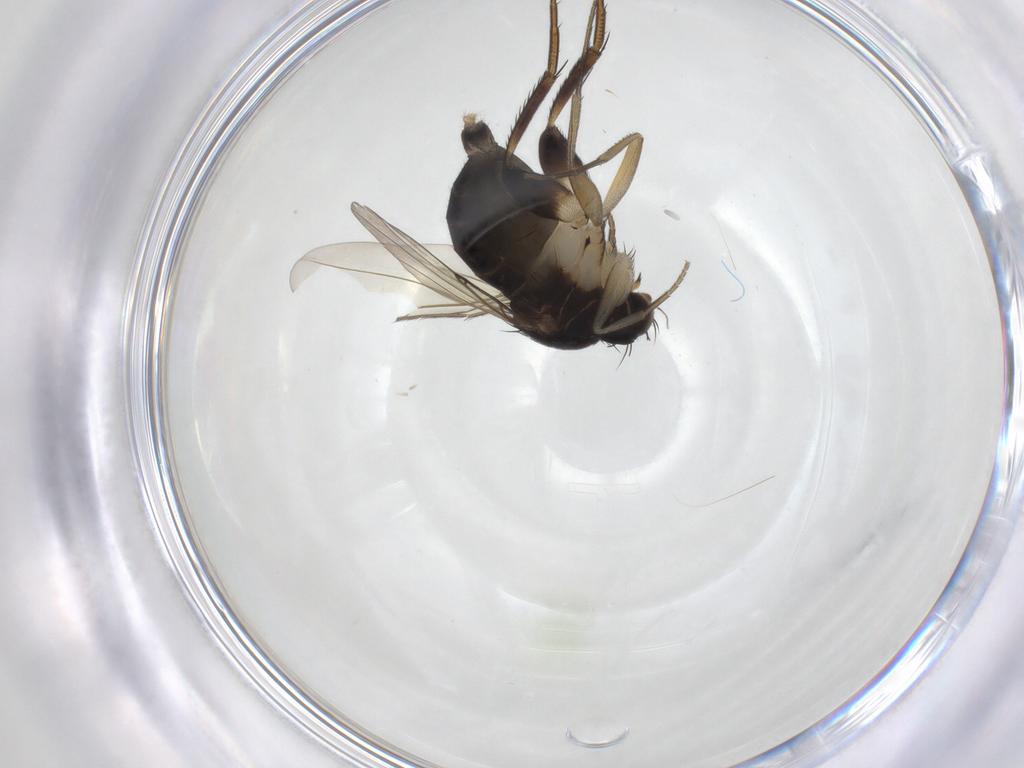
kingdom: Animalia
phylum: Arthropoda
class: Insecta
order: Diptera
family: Phoridae
